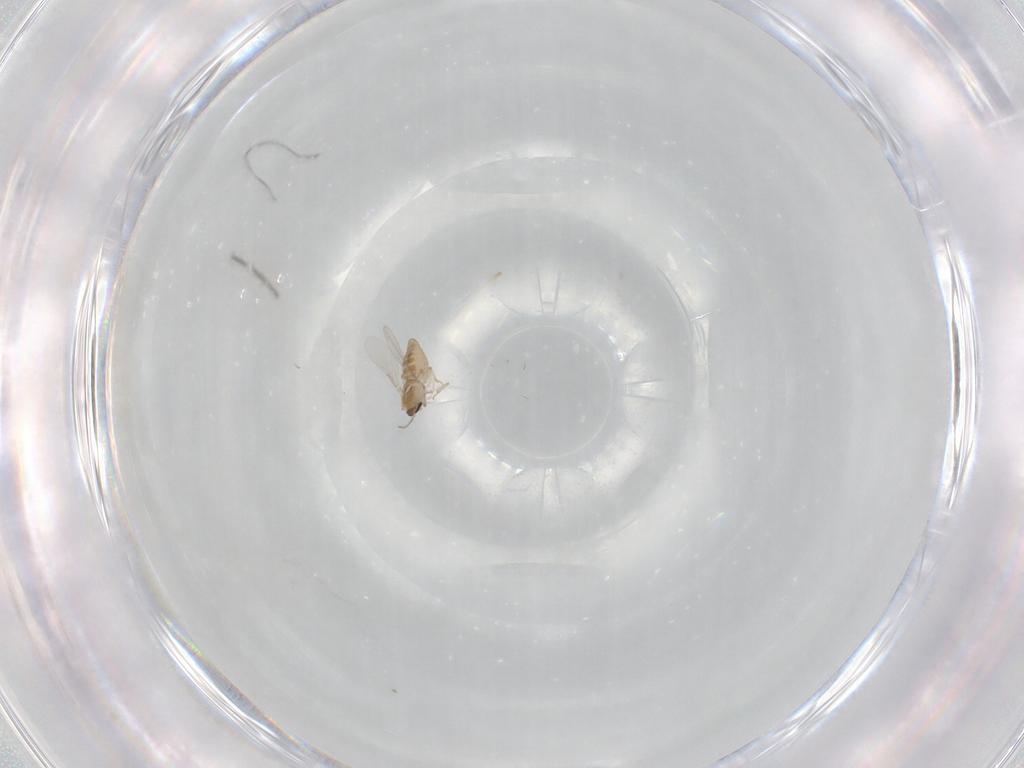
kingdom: Animalia
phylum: Arthropoda
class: Insecta
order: Diptera
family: Ceratopogonidae
